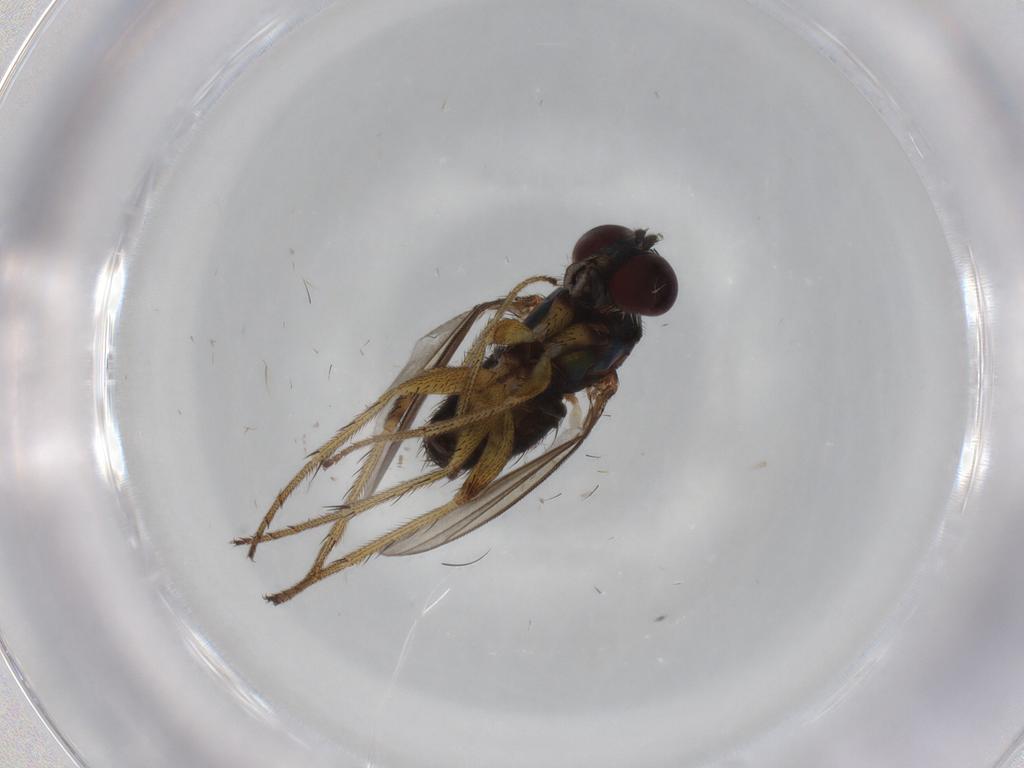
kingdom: Animalia
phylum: Arthropoda
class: Insecta
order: Diptera
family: Dolichopodidae
